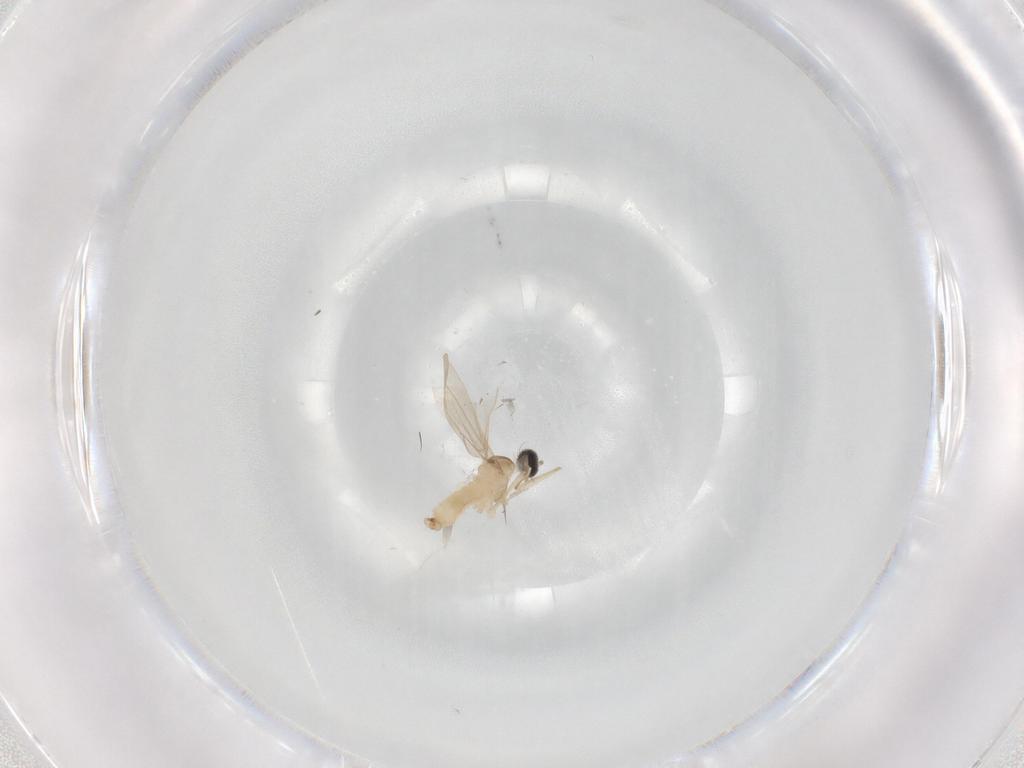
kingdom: Animalia
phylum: Arthropoda
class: Insecta
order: Diptera
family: Cecidomyiidae
